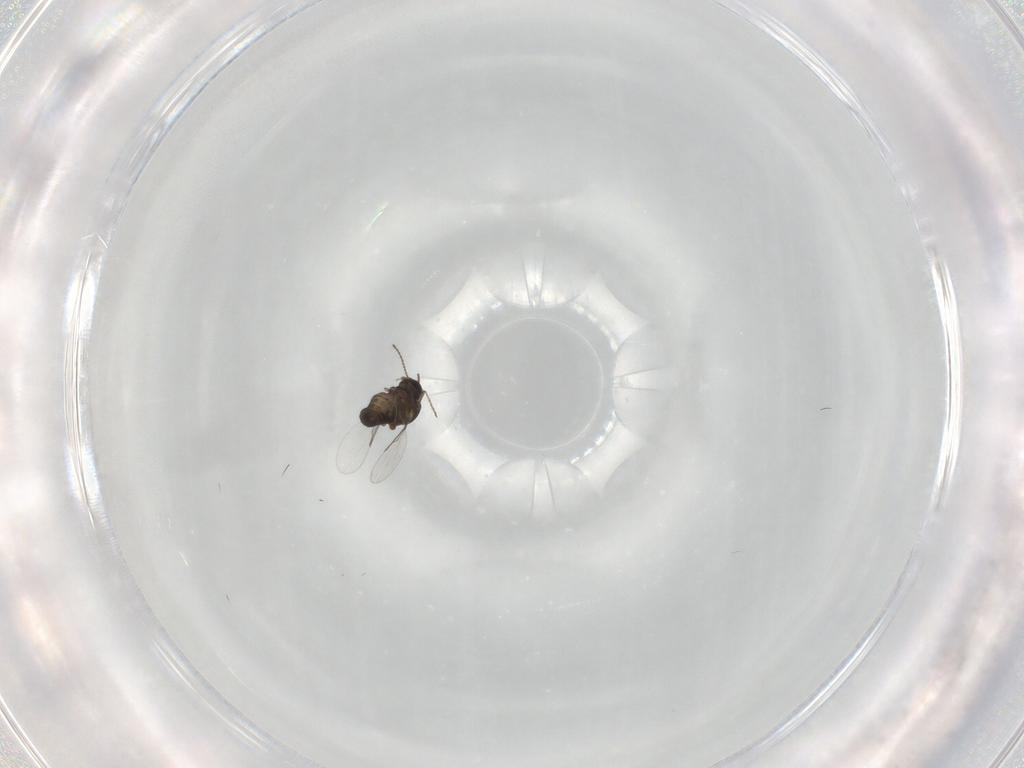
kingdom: Animalia
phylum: Arthropoda
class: Insecta
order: Diptera
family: Ceratopogonidae
